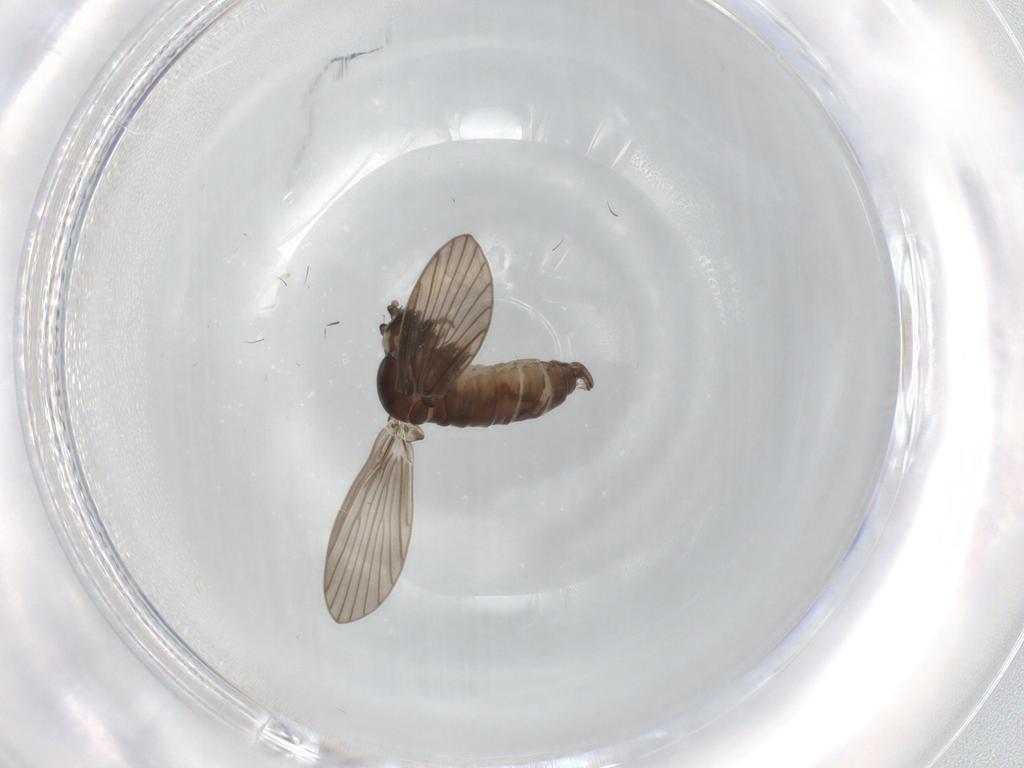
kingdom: Animalia
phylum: Arthropoda
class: Insecta
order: Diptera
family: Psychodidae
